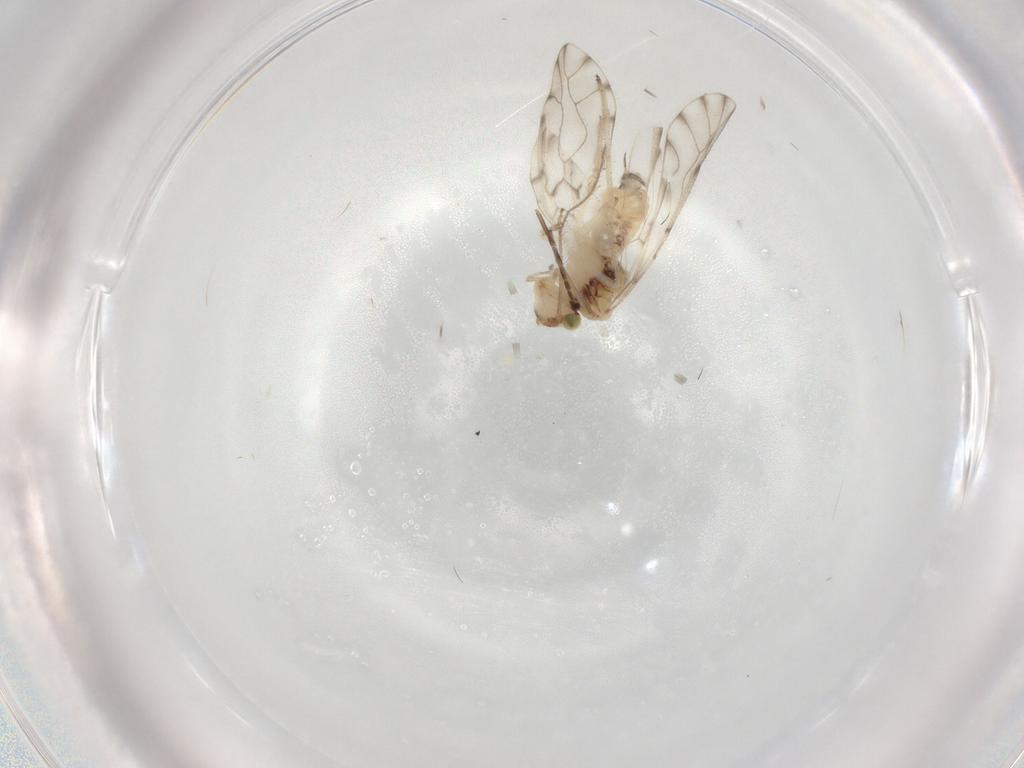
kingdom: Animalia
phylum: Arthropoda
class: Insecta
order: Psocodea
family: Ectopsocidae
